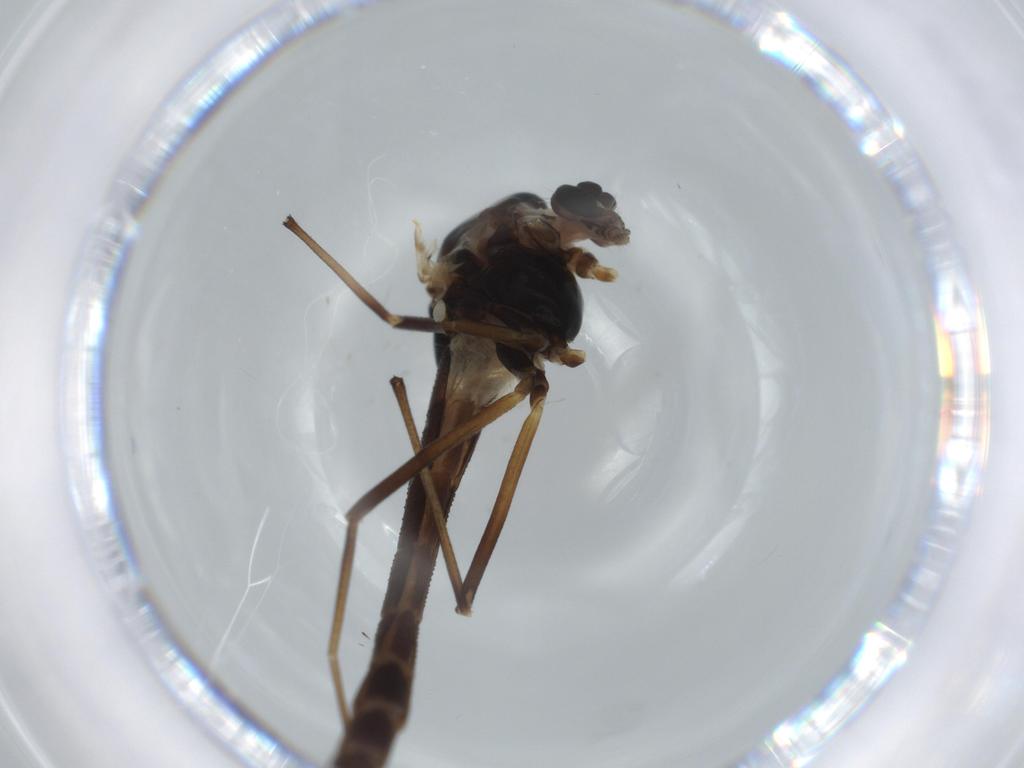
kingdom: Animalia
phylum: Arthropoda
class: Insecta
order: Diptera
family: Chironomidae
